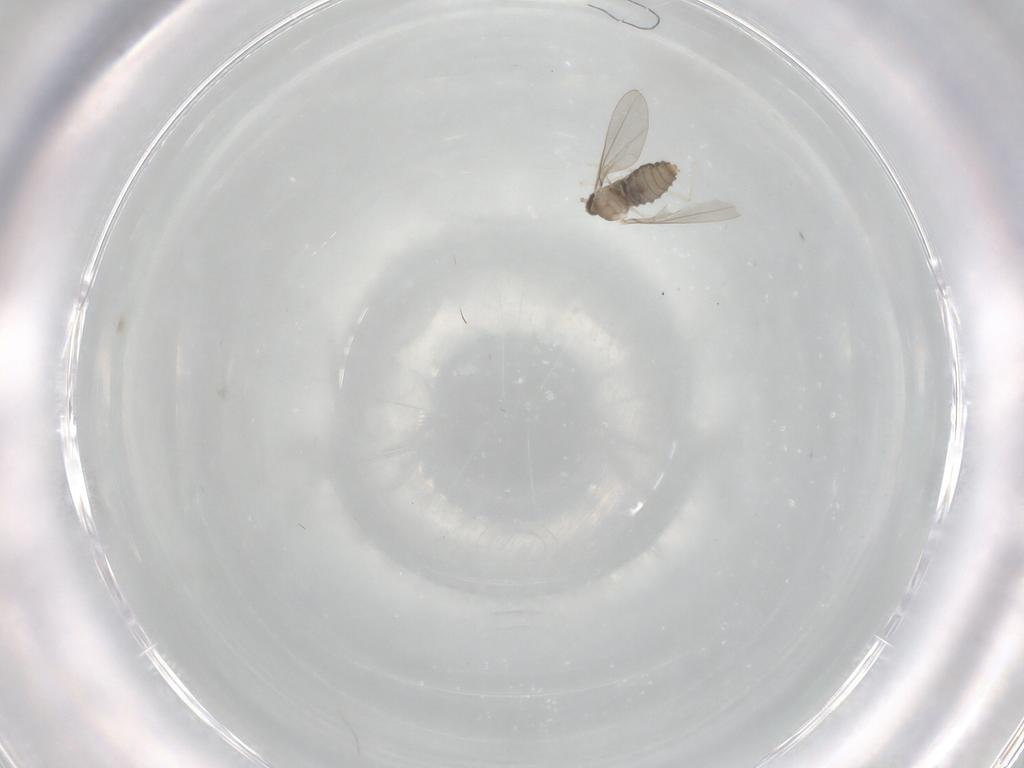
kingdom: Animalia
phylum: Arthropoda
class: Insecta
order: Diptera
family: Cecidomyiidae
